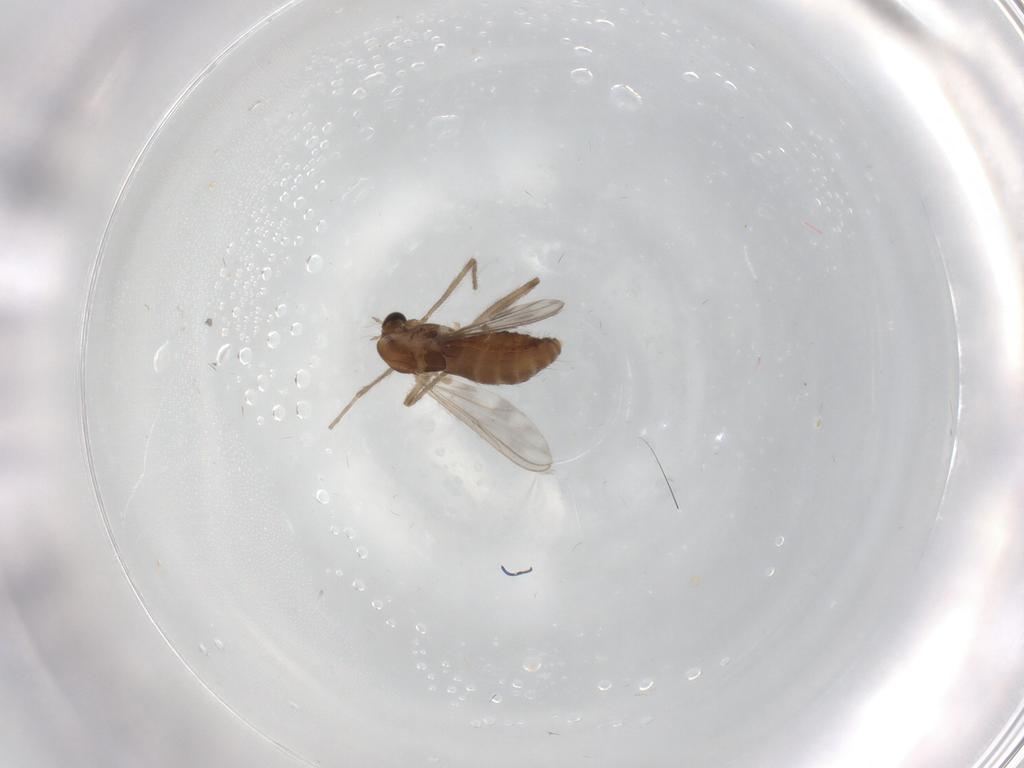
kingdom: Animalia
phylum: Arthropoda
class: Insecta
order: Diptera
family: Chironomidae
